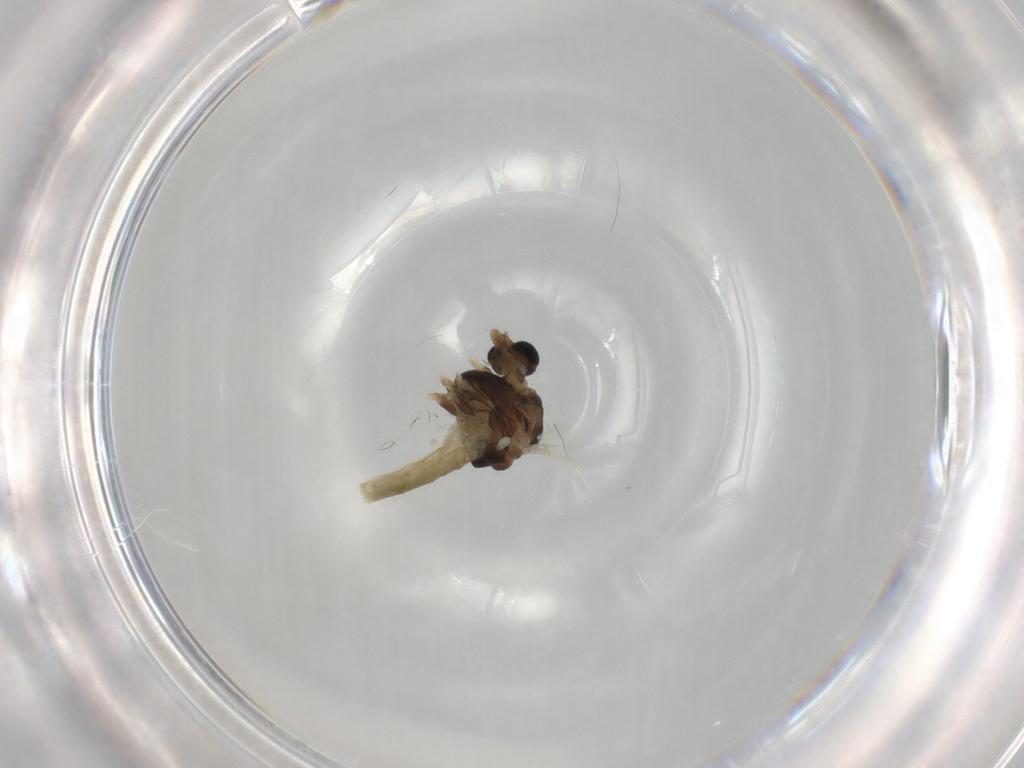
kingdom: Animalia
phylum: Arthropoda
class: Insecta
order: Diptera
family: Chironomidae
